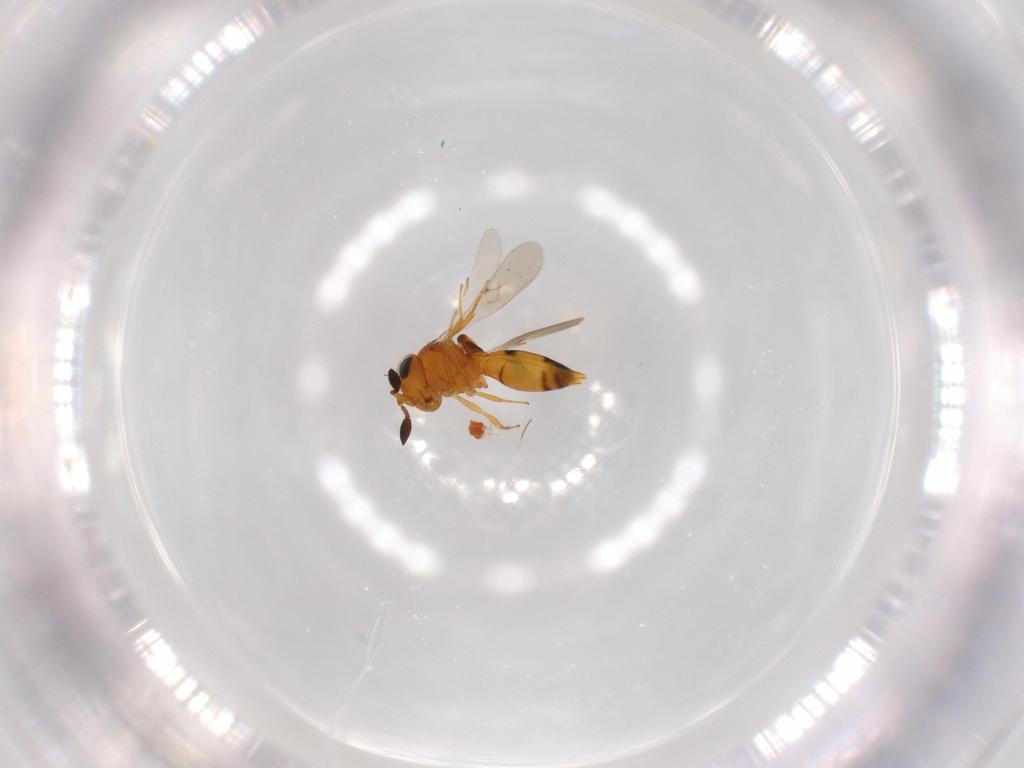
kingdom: Animalia
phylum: Arthropoda
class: Insecta
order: Hymenoptera
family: Scelionidae
